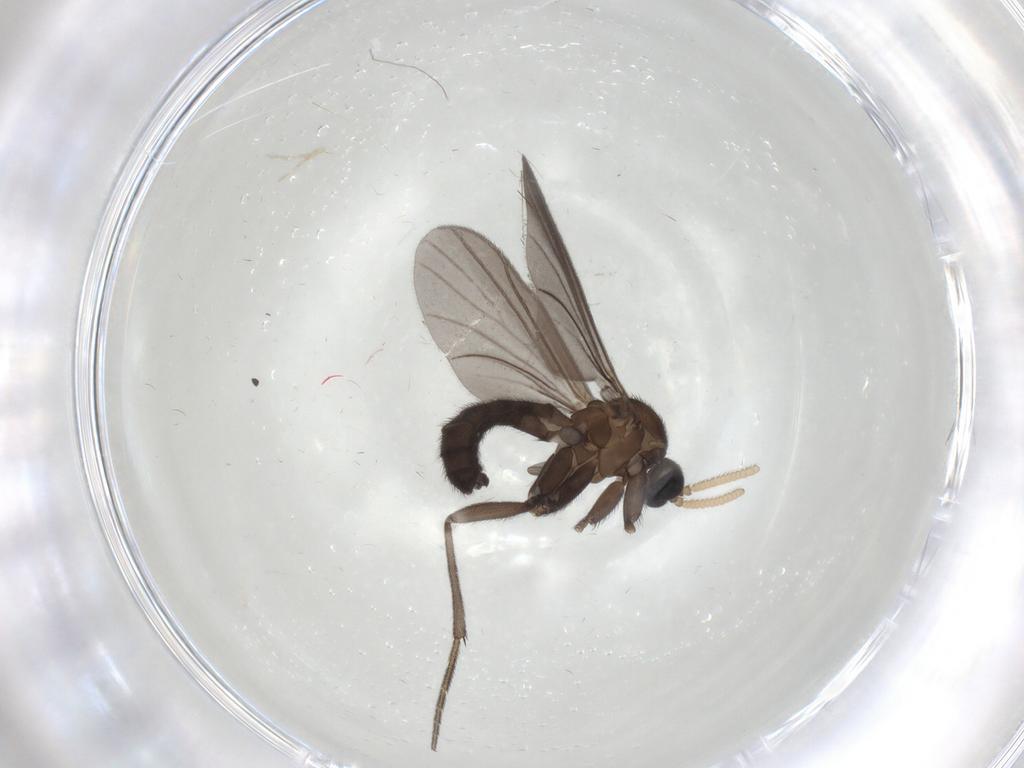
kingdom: Animalia
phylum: Arthropoda
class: Insecta
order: Diptera
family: Mycetophilidae
